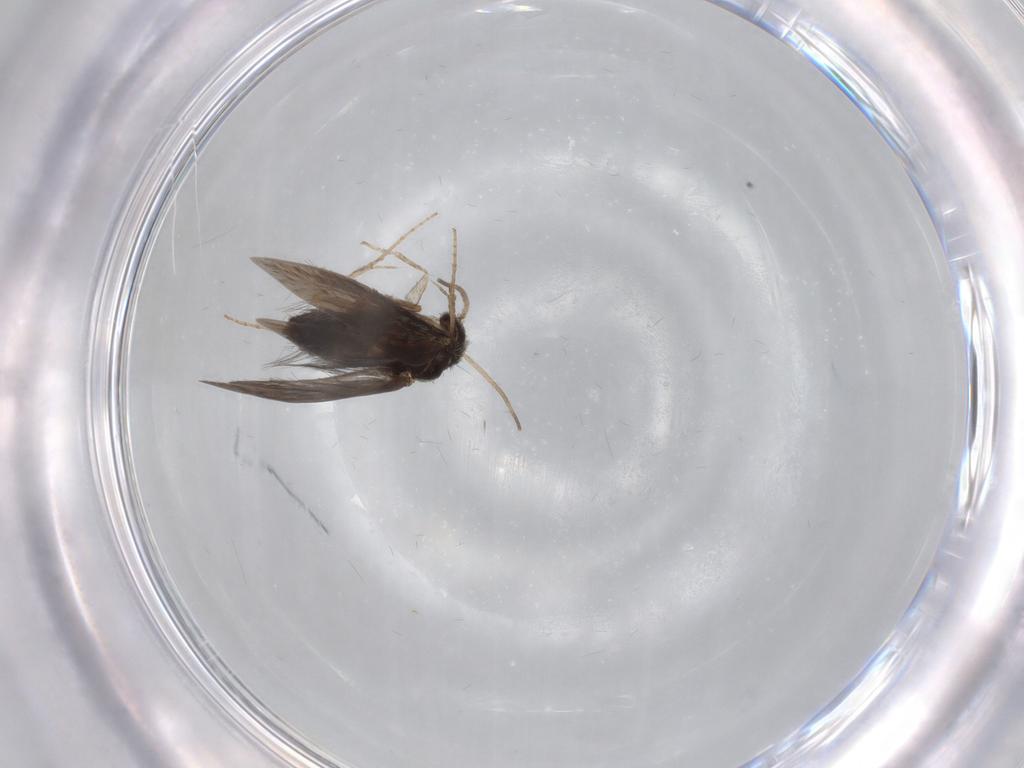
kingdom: Animalia
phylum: Arthropoda
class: Insecta
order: Trichoptera
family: Hydroptilidae
